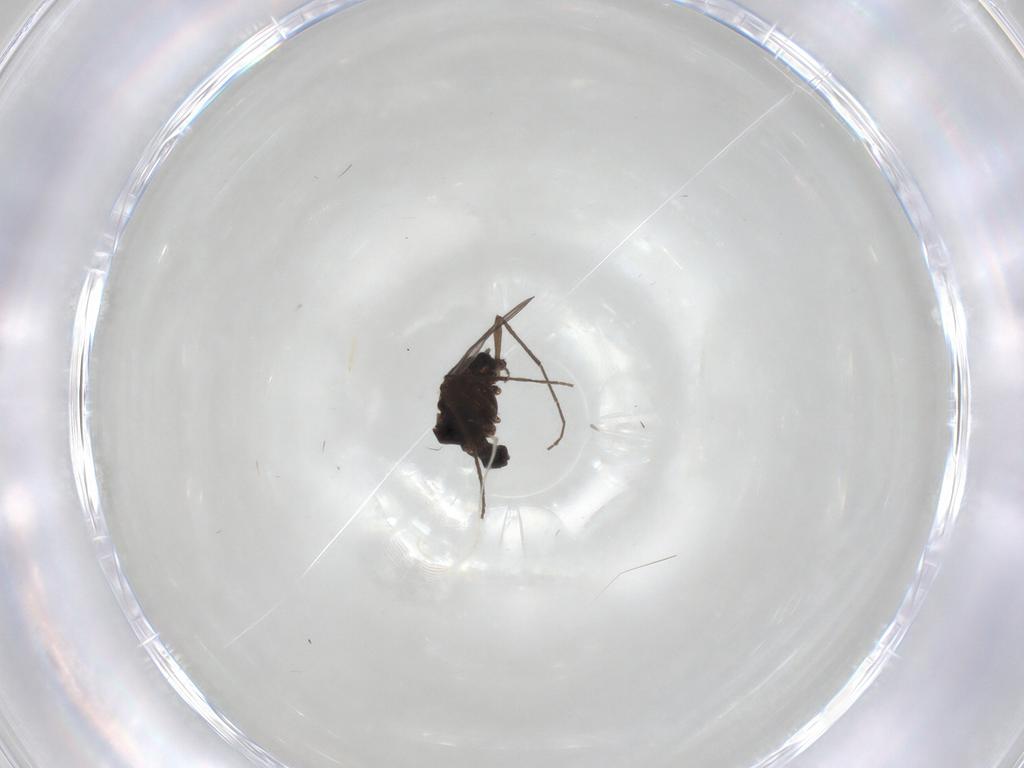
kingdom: Animalia
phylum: Arthropoda
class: Insecta
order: Diptera
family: Chironomidae
